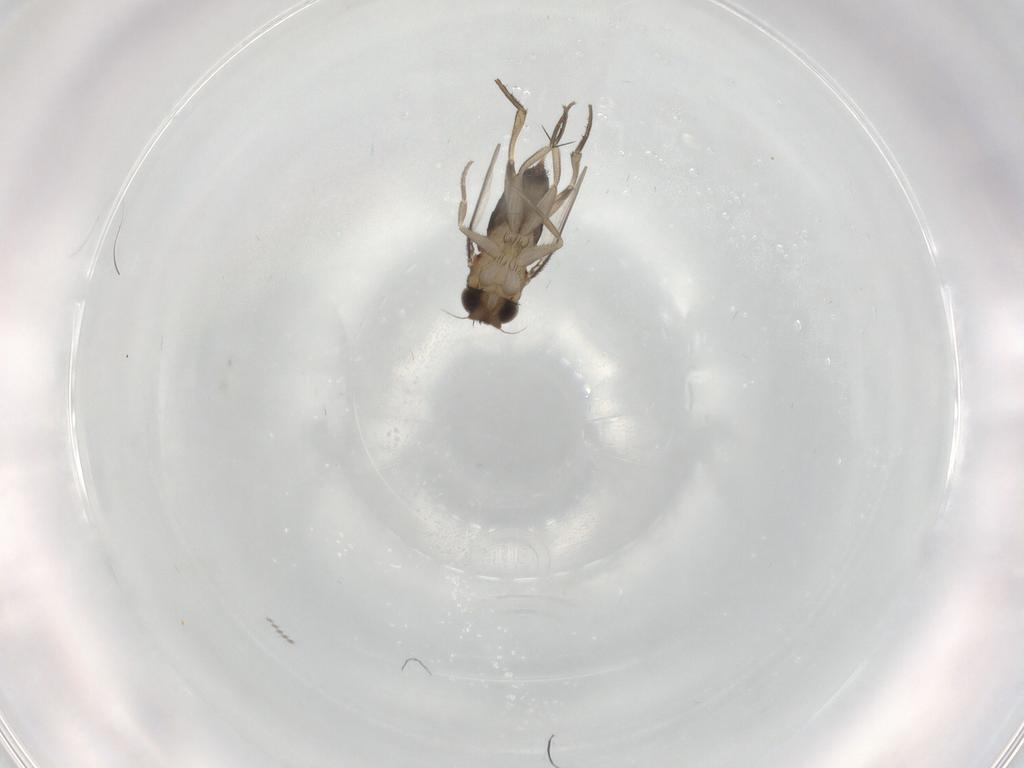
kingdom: Animalia
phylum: Arthropoda
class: Insecta
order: Diptera
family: Phoridae
